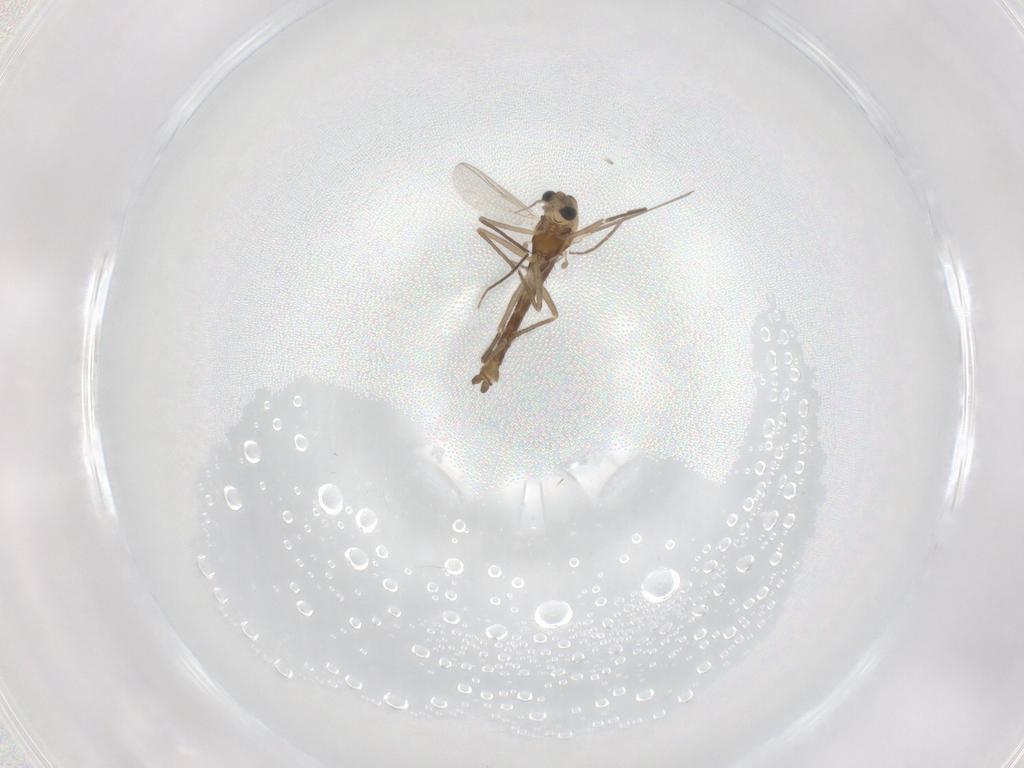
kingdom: Animalia
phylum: Arthropoda
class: Insecta
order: Diptera
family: Chironomidae
